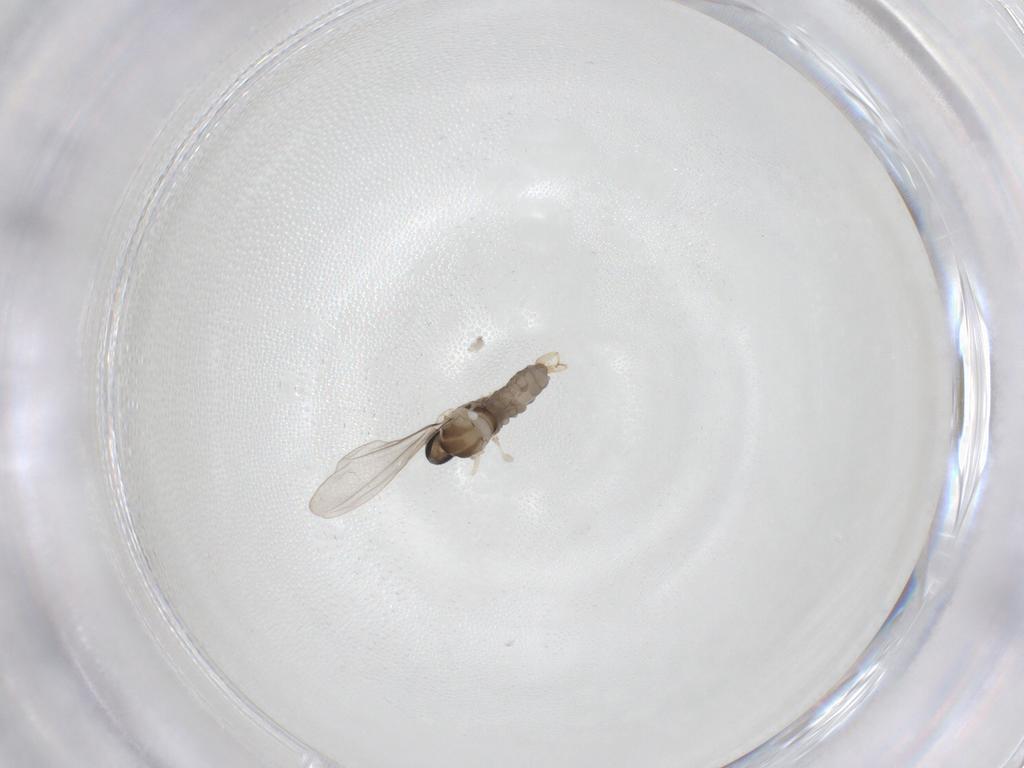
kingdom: Animalia
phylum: Arthropoda
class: Insecta
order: Diptera
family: Cecidomyiidae
